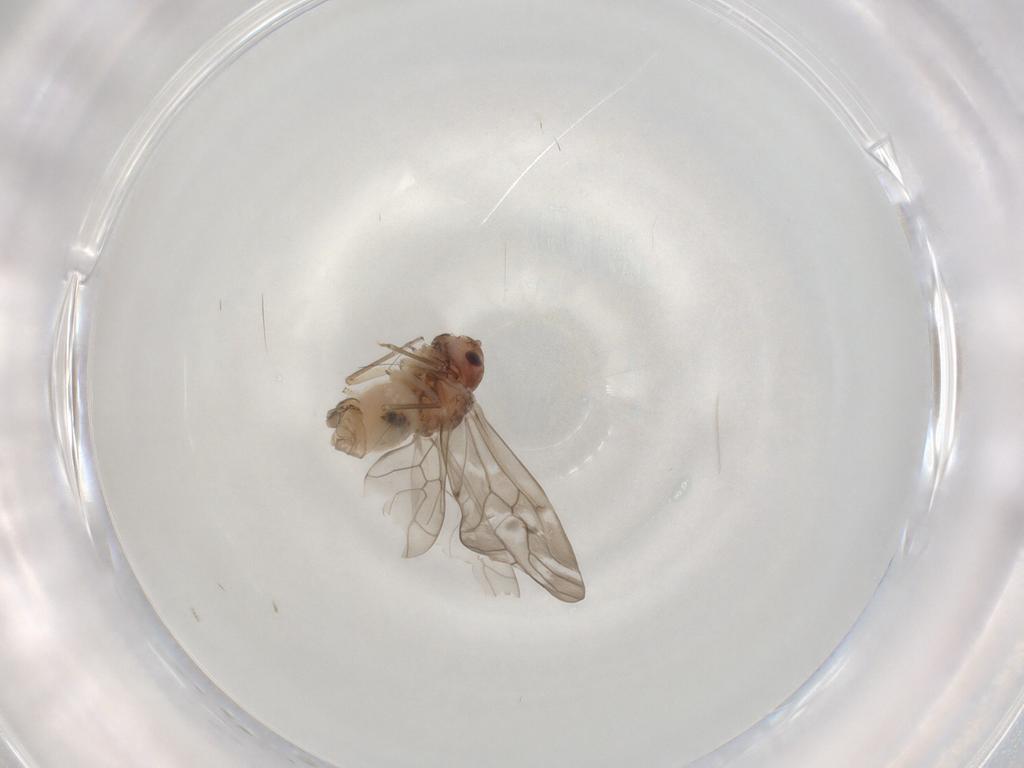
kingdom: Animalia
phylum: Arthropoda
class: Insecta
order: Psocodea
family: Peripsocidae
